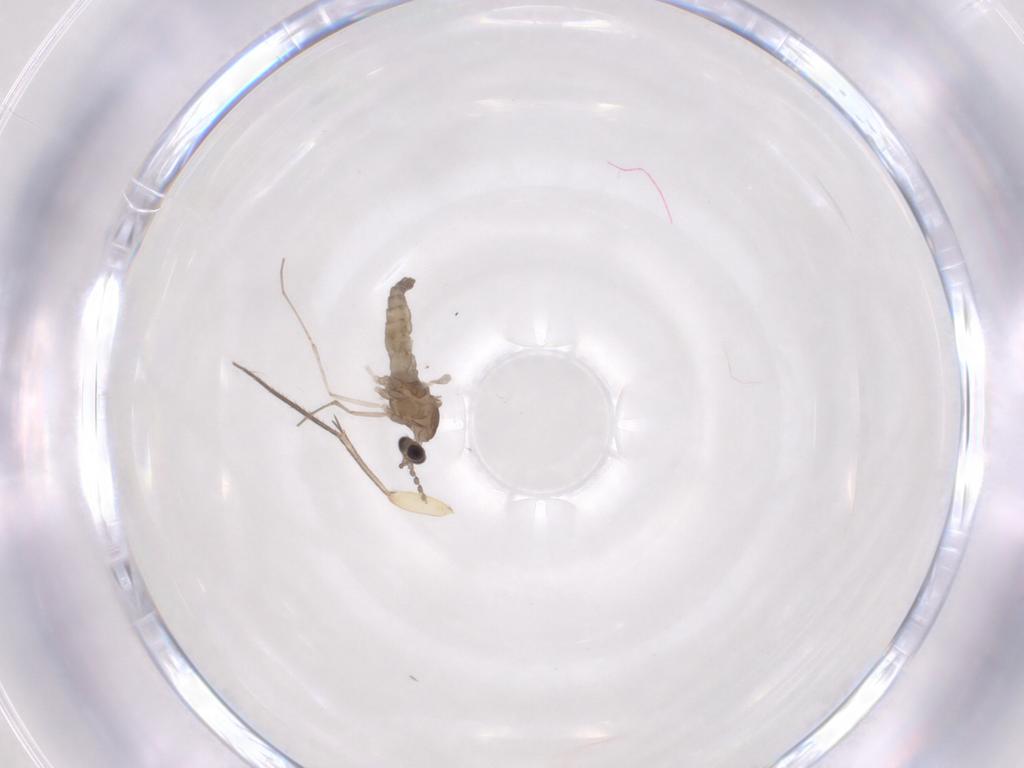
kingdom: Animalia
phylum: Arthropoda
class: Insecta
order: Diptera
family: Cecidomyiidae
